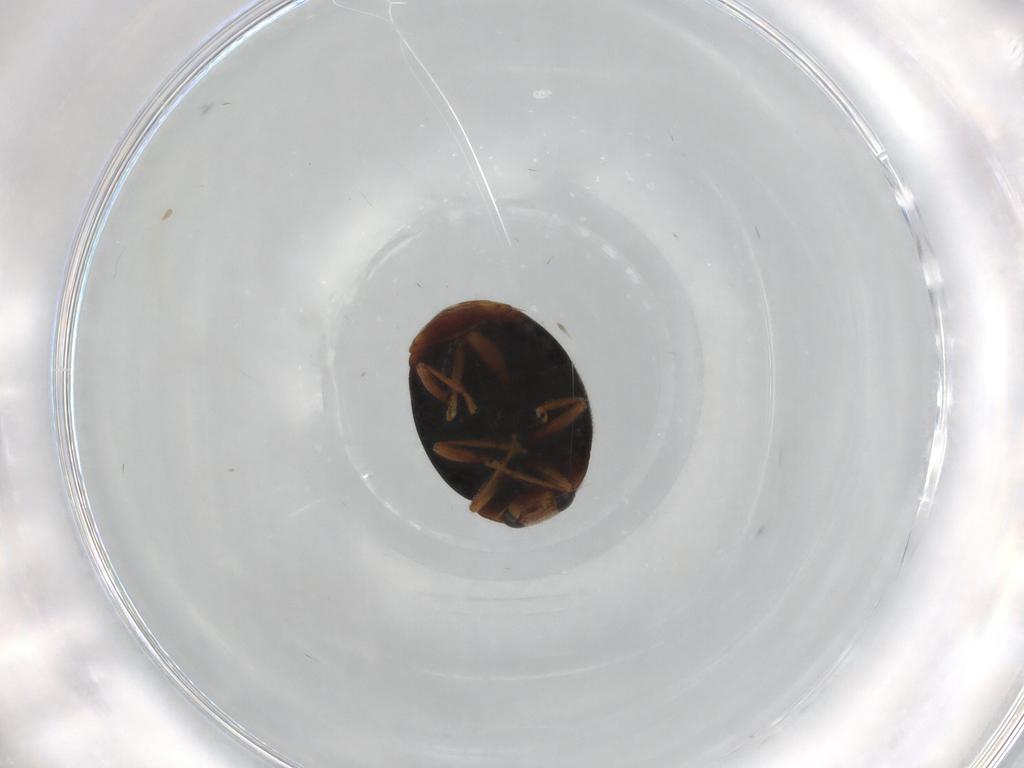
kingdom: Animalia
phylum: Arthropoda
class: Insecta
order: Coleoptera
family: Coccinellidae
